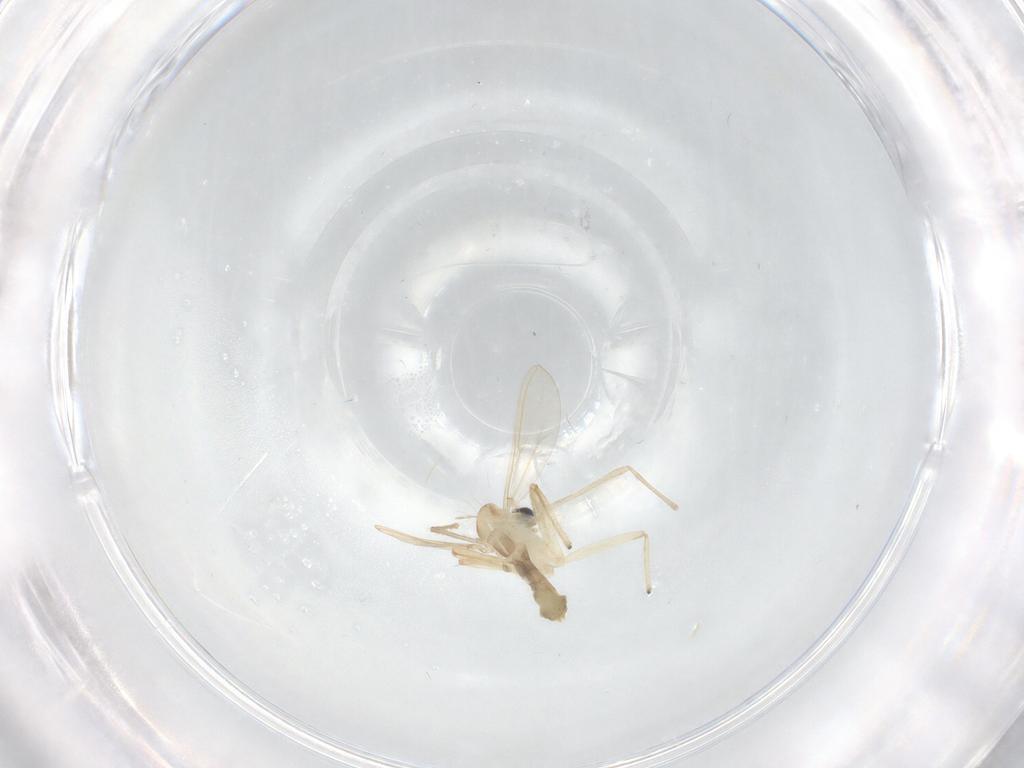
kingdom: Animalia
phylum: Arthropoda
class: Insecta
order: Diptera
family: Chironomidae
